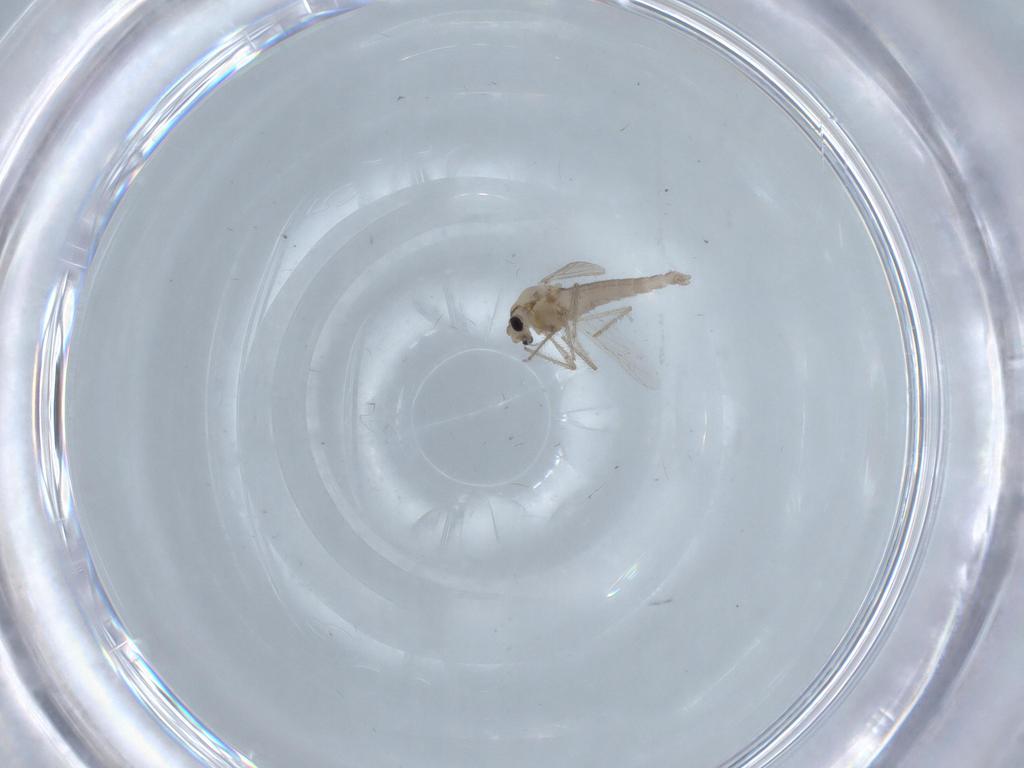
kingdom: Animalia
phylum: Arthropoda
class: Insecta
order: Diptera
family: Chironomidae
